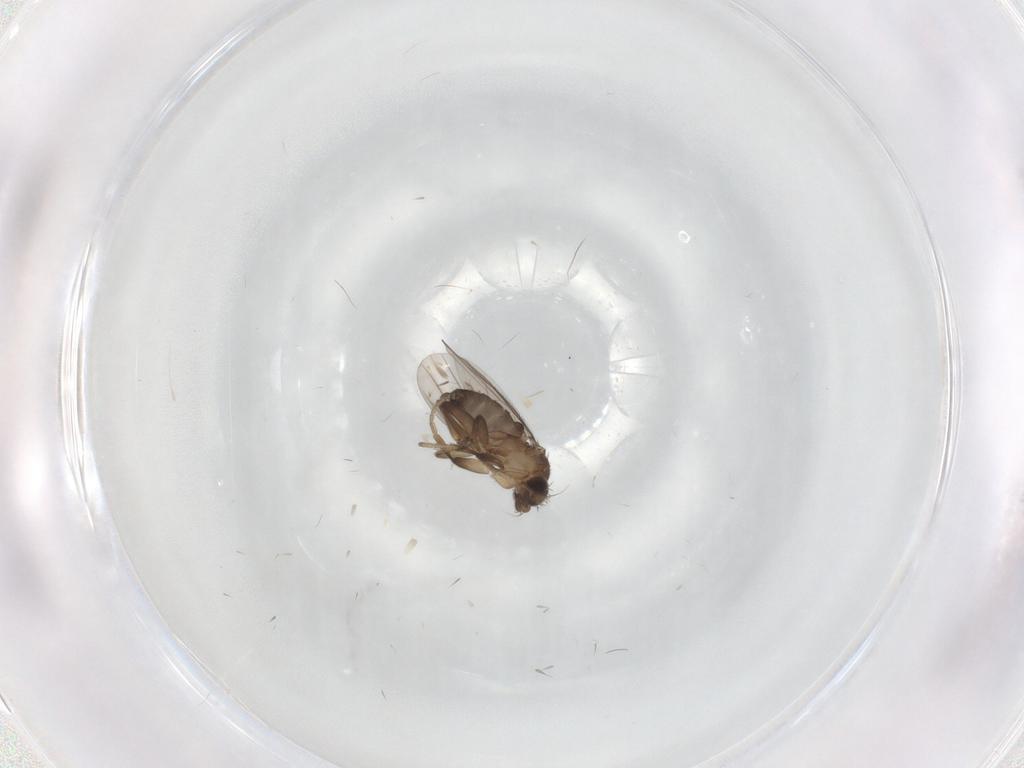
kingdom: Animalia
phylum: Arthropoda
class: Insecta
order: Diptera
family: Phoridae
